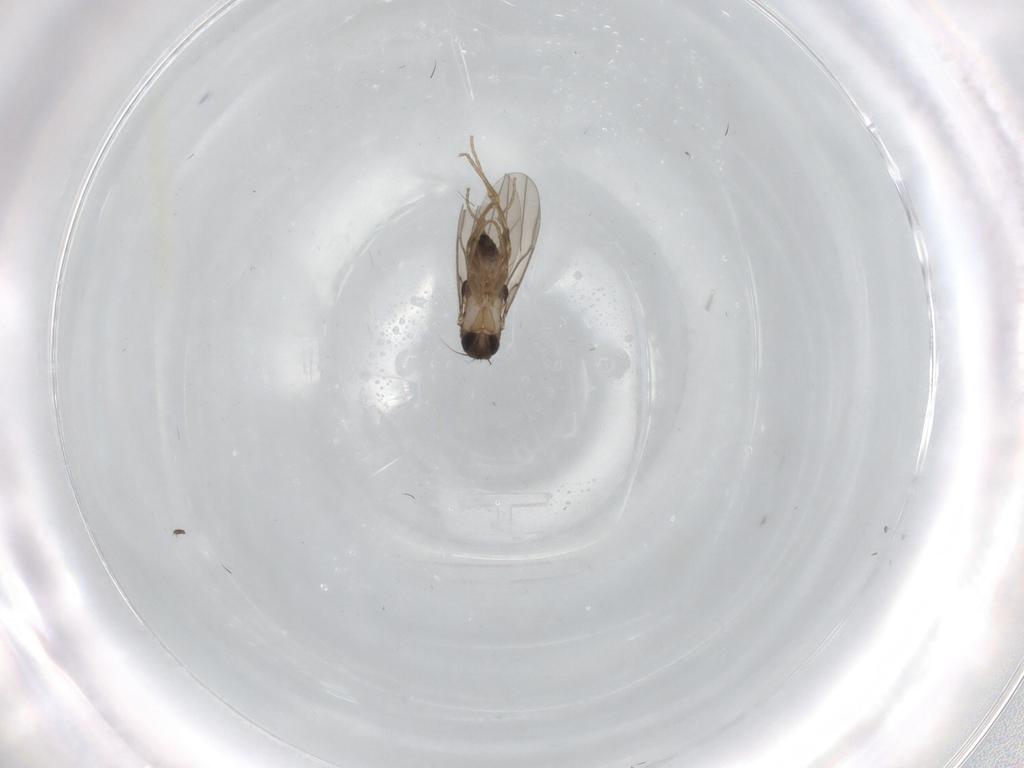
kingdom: Animalia
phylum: Arthropoda
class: Insecta
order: Diptera
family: Phoridae
